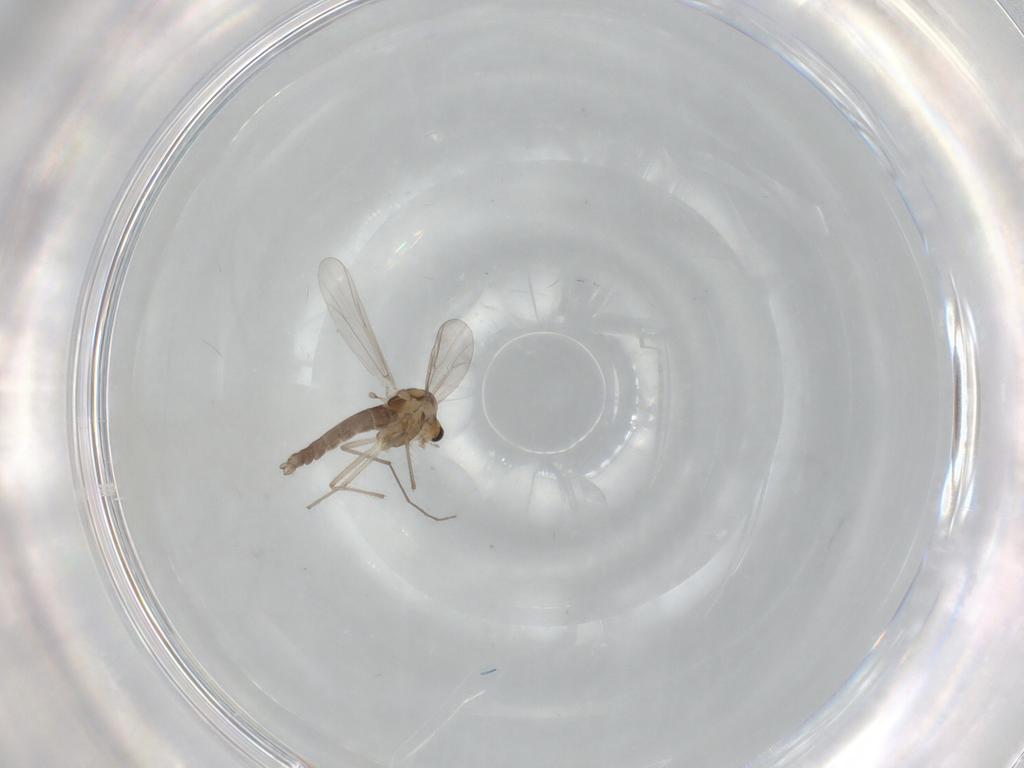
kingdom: Animalia
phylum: Arthropoda
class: Insecta
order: Diptera
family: Chironomidae
